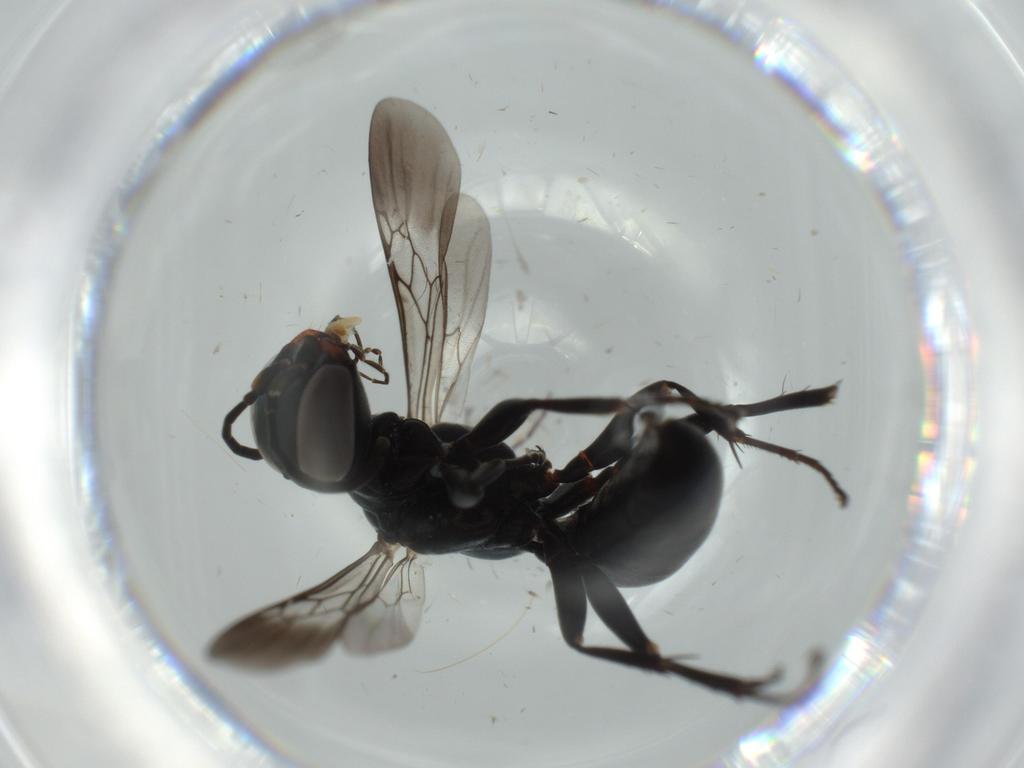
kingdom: Animalia
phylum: Arthropoda
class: Insecta
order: Hymenoptera
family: Crabronidae
